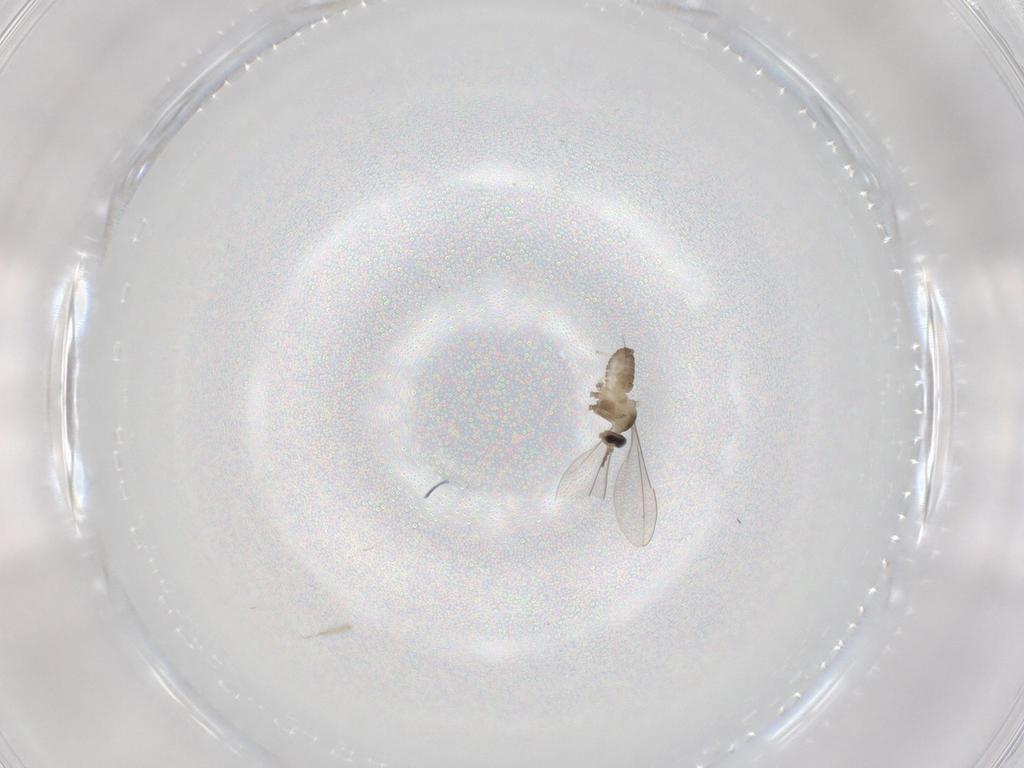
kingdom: Animalia
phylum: Arthropoda
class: Insecta
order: Diptera
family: Cecidomyiidae
